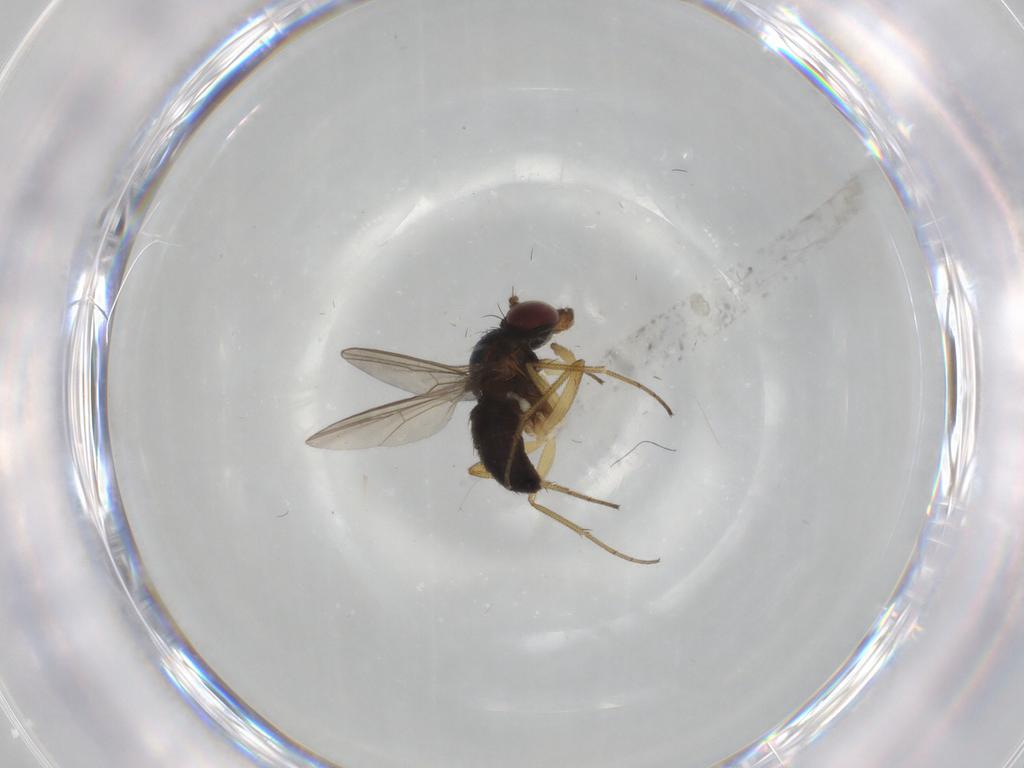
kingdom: Animalia
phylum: Arthropoda
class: Insecta
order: Diptera
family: Dolichopodidae
